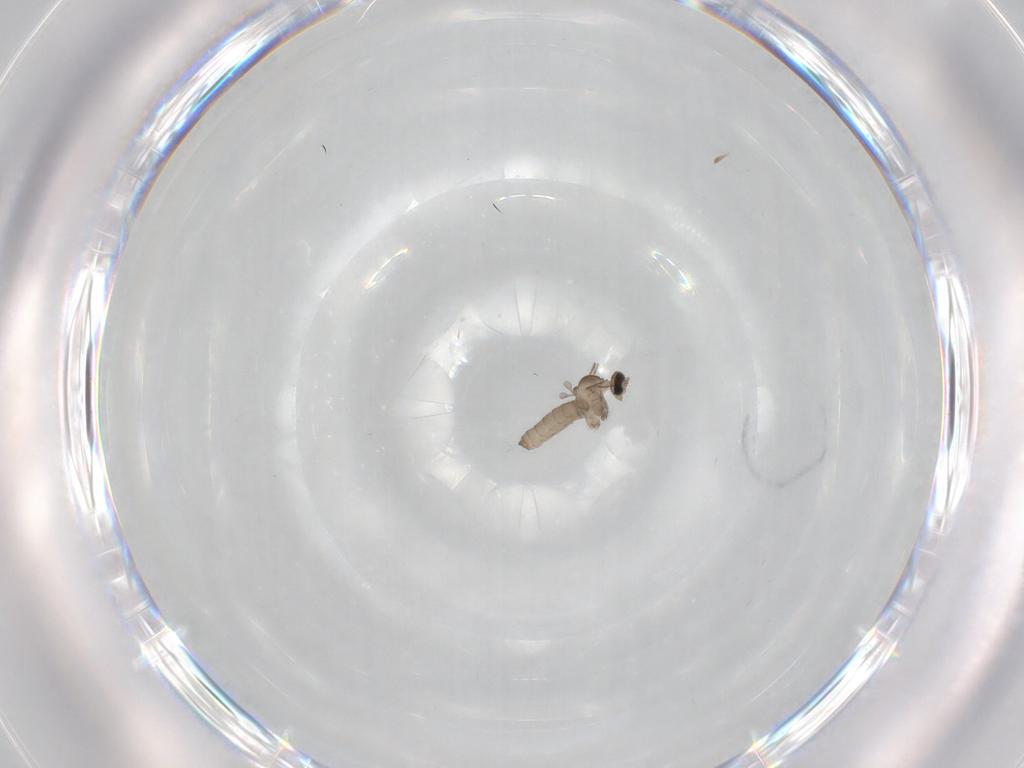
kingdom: Animalia
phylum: Arthropoda
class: Insecta
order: Diptera
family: Cecidomyiidae
